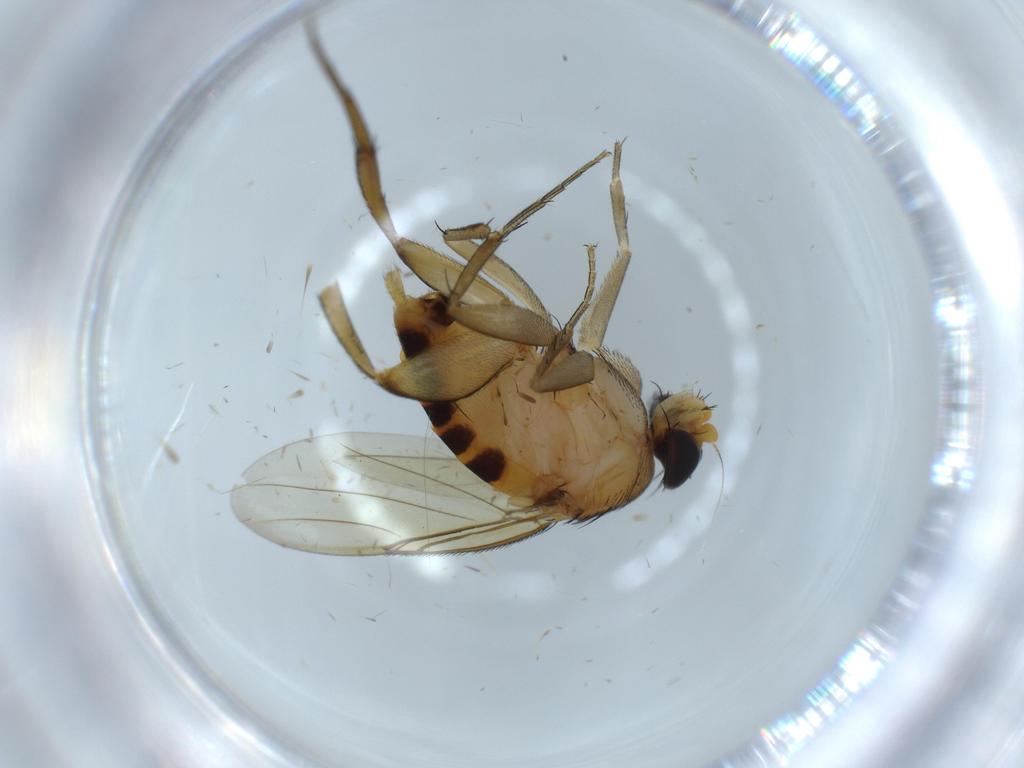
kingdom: Animalia
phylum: Arthropoda
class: Insecta
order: Diptera
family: Phoridae
